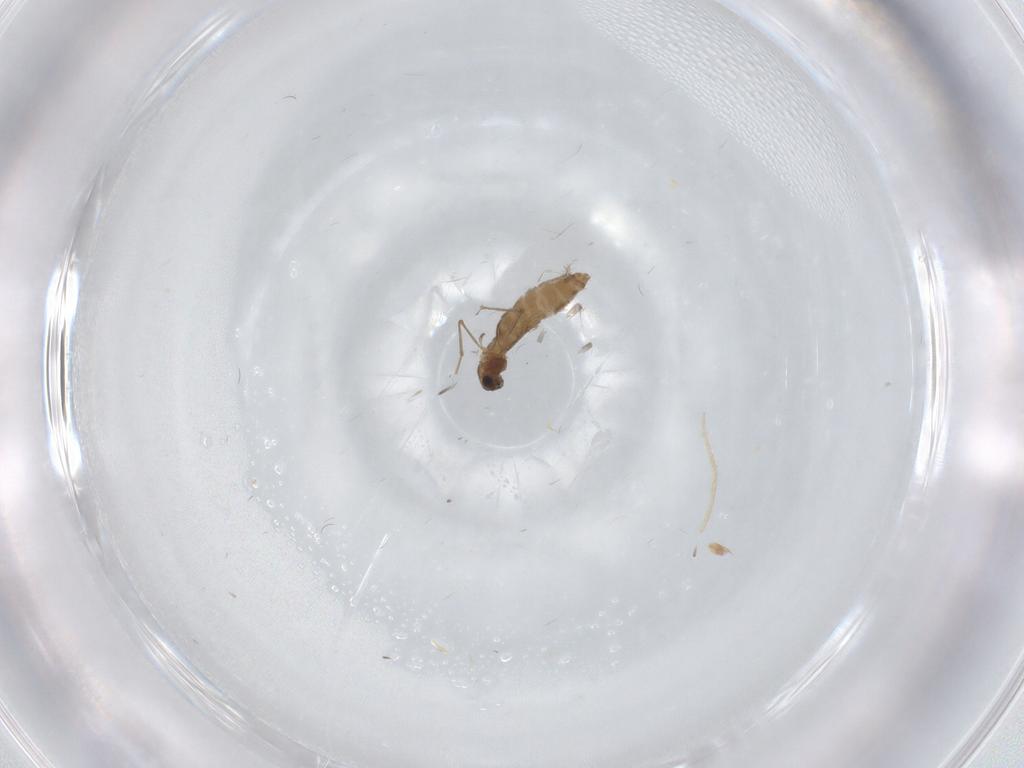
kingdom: Animalia
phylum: Arthropoda
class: Insecta
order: Diptera
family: Chironomidae
